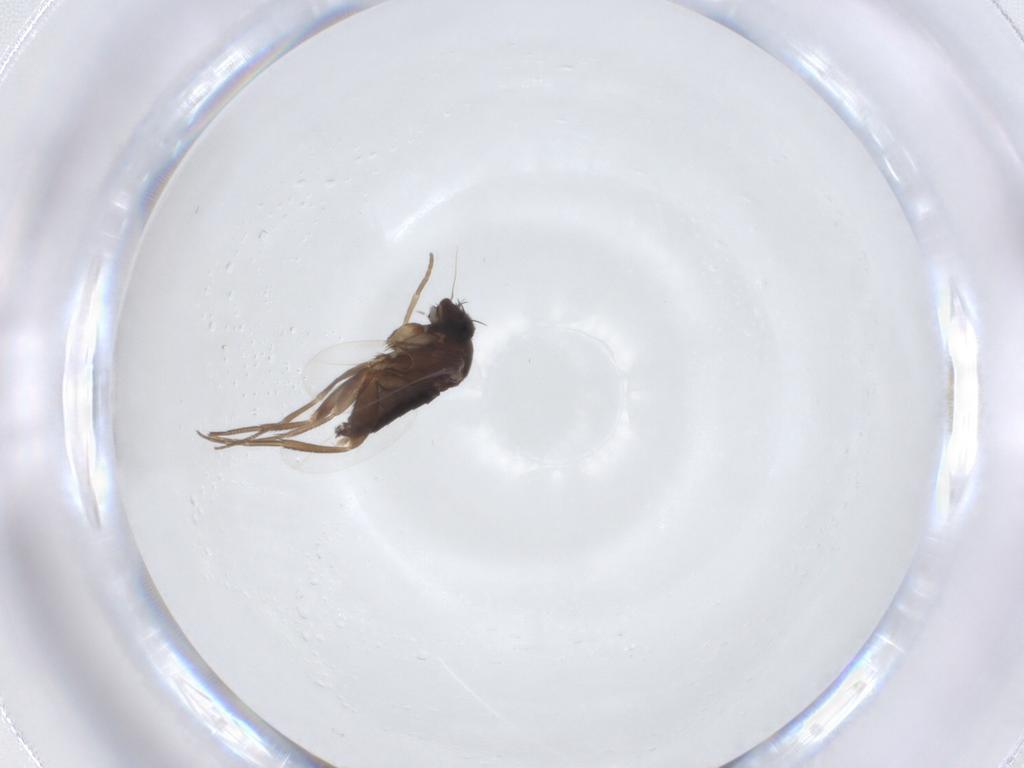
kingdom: Animalia
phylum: Arthropoda
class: Insecta
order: Diptera
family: Phoridae
